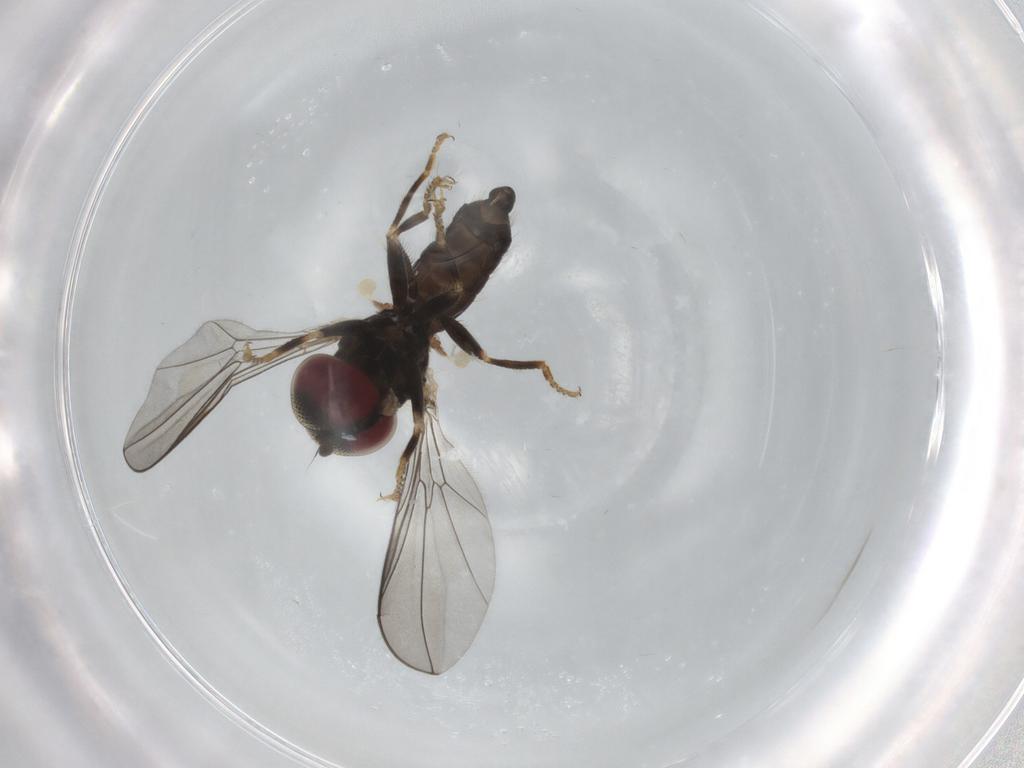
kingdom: Animalia
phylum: Arthropoda
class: Insecta
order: Diptera
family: Pipunculidae
